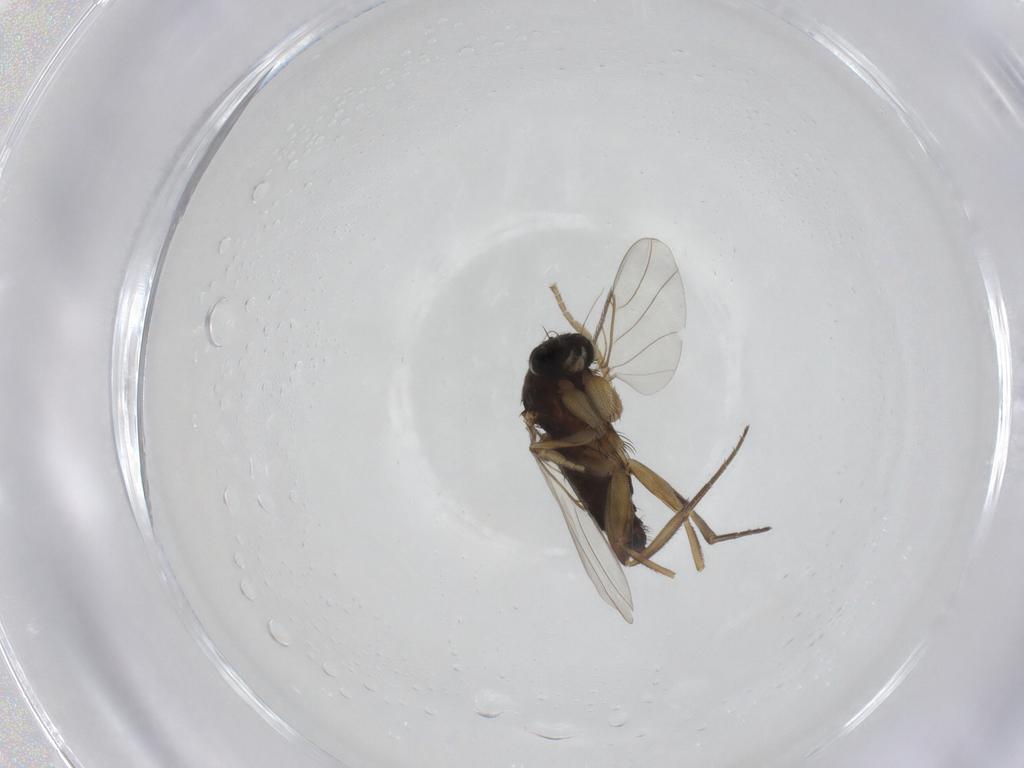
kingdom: Animalia
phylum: Arthropoda
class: Insecta
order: Diptera
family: Phoridae
